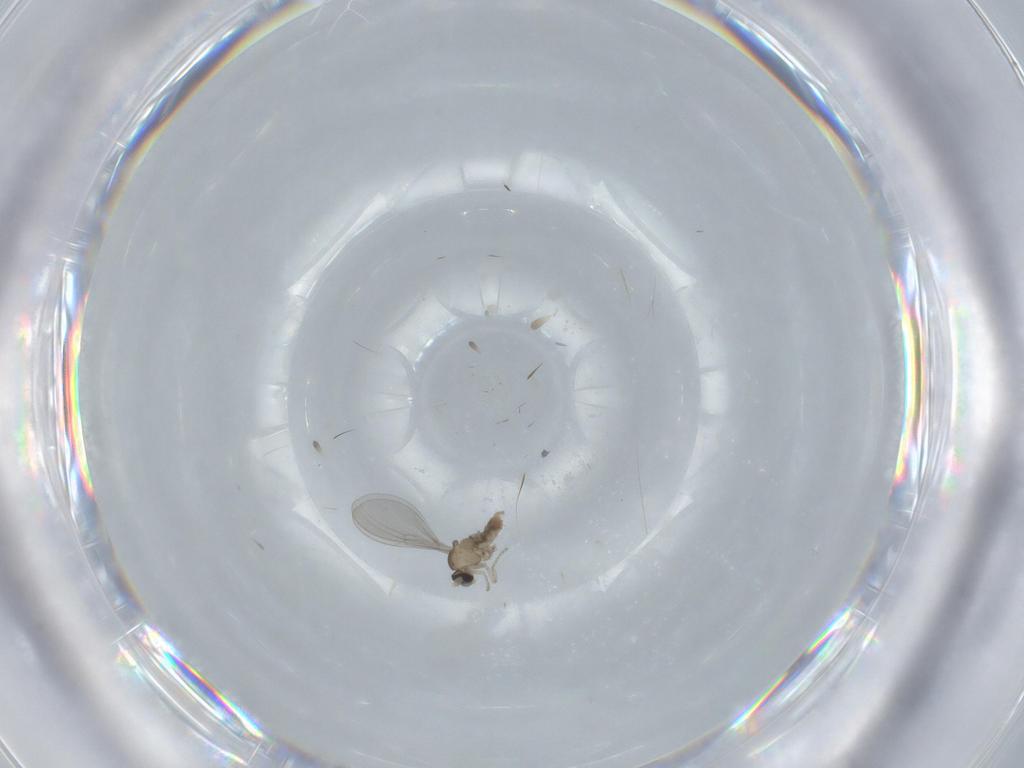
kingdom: Animalia
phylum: Arthropoda
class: Insecta
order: Diptera
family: Cecidomyiidae
